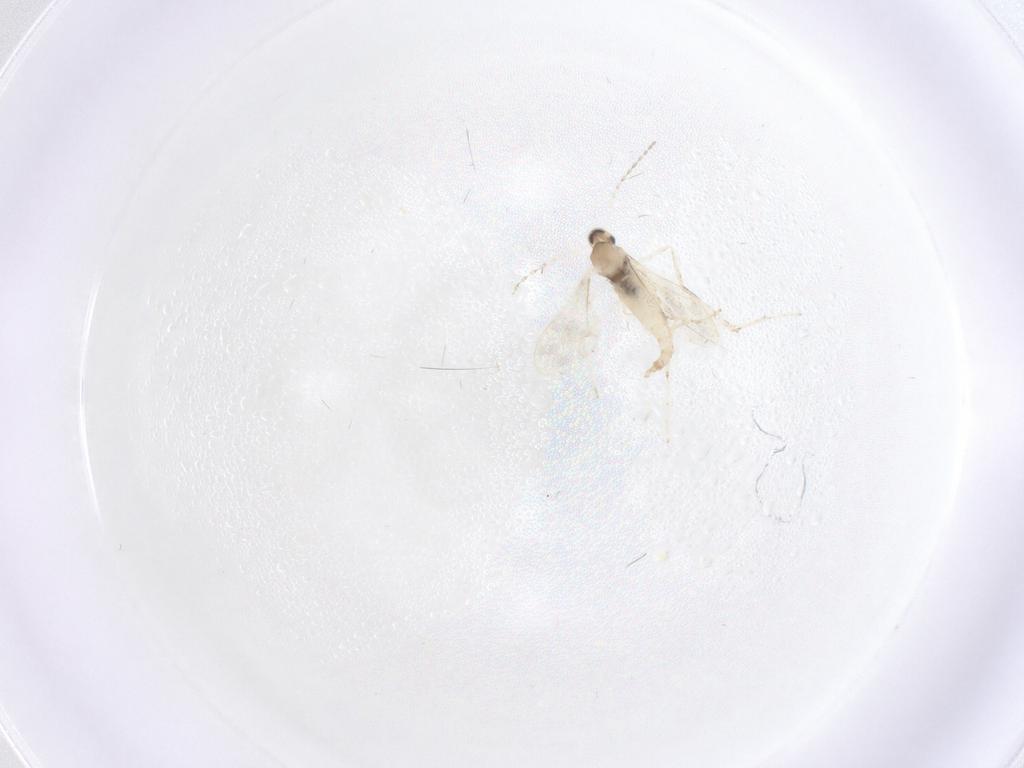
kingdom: Animalia
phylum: Arthropoda
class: Insecta
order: Diptera
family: Cecidomyiidae
